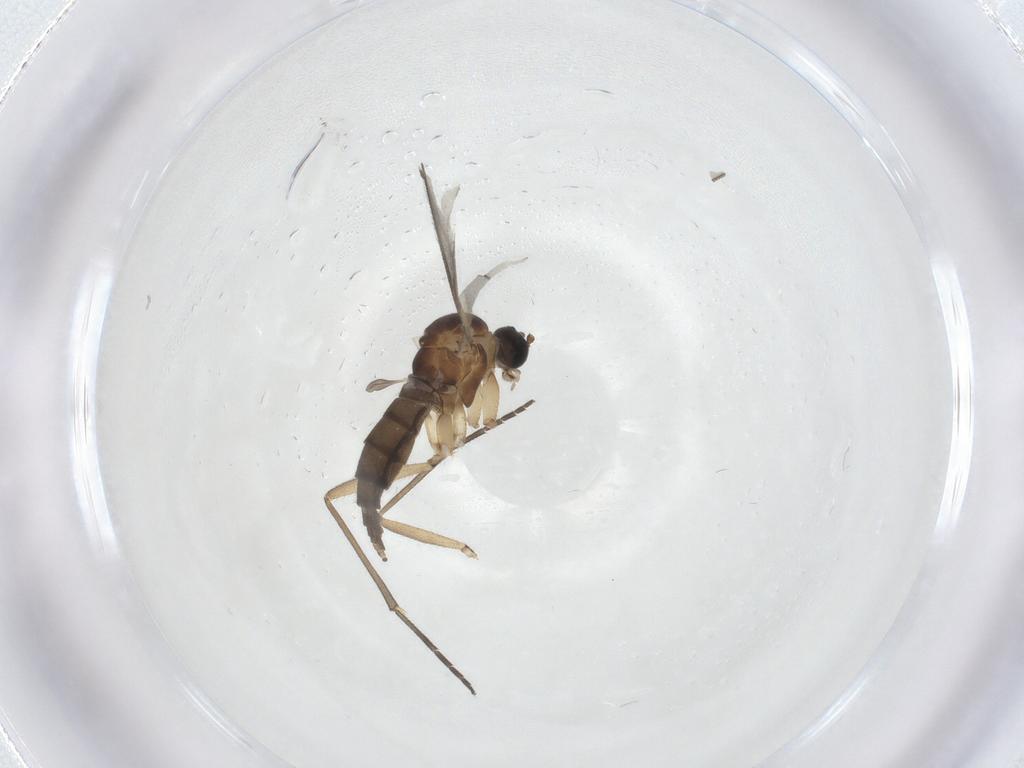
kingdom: Animalia
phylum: Arthropoda
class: Insecta
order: Diptera
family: Sciaridae
